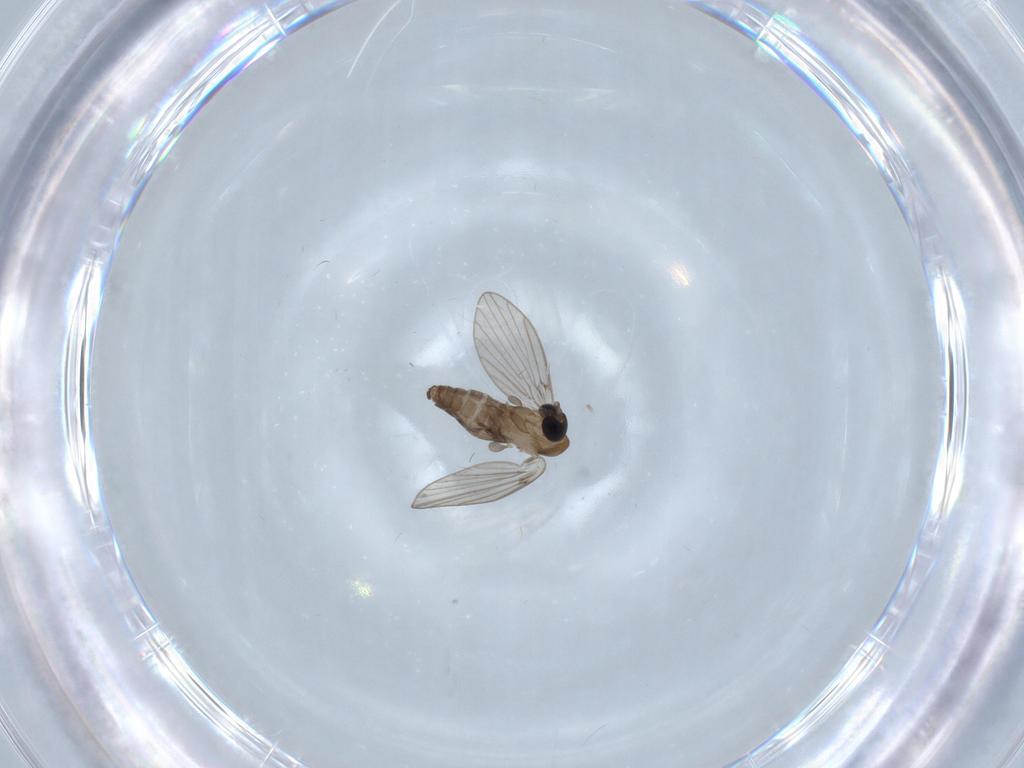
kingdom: Animalia
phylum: Arthropoda
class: Insecta
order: Diptera
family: Cecidomyiidae
